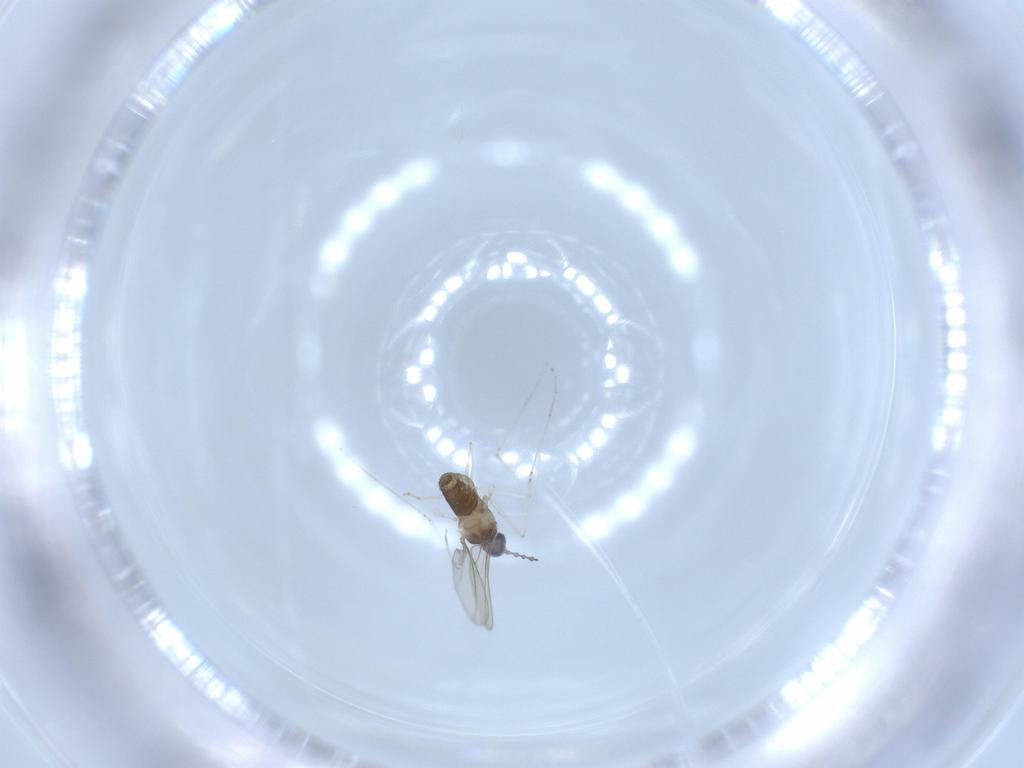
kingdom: Animalia
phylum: Arthropoda
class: Insecta
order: Diptera
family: Cecidomyiidae
